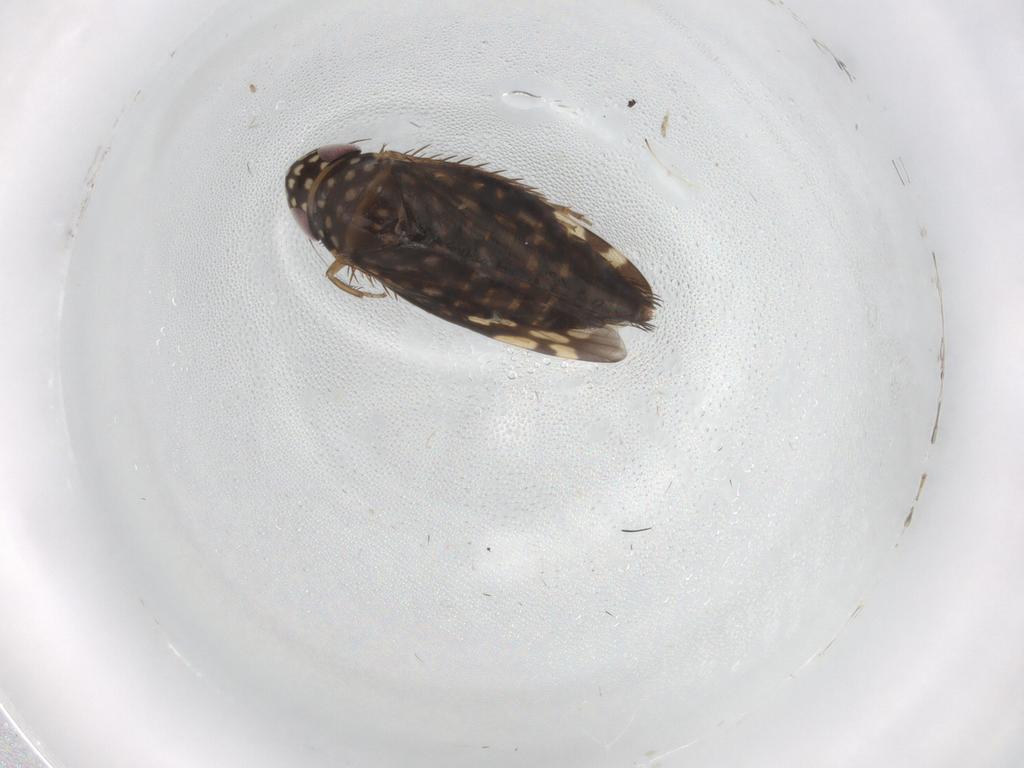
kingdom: Animalia
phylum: Arthropoda
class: Insecta
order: Hemiptera
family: Cicadellidae
